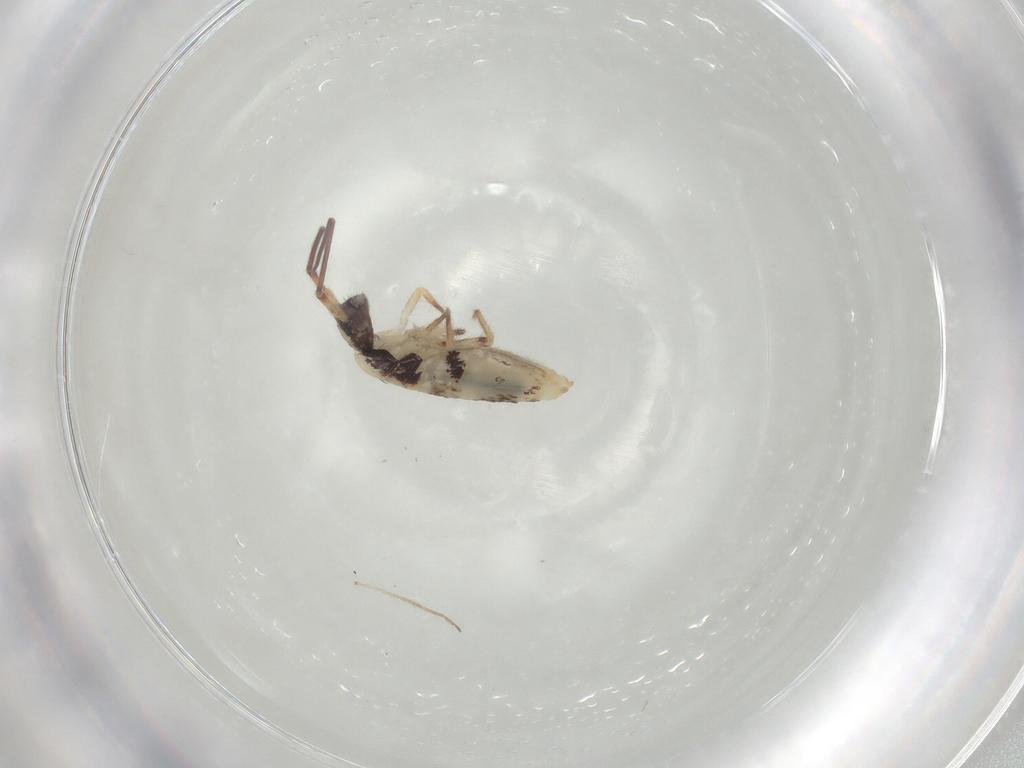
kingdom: Animalia
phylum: Arthropoda
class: Collembola
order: Entomobryomorpha
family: Entomobryidae
